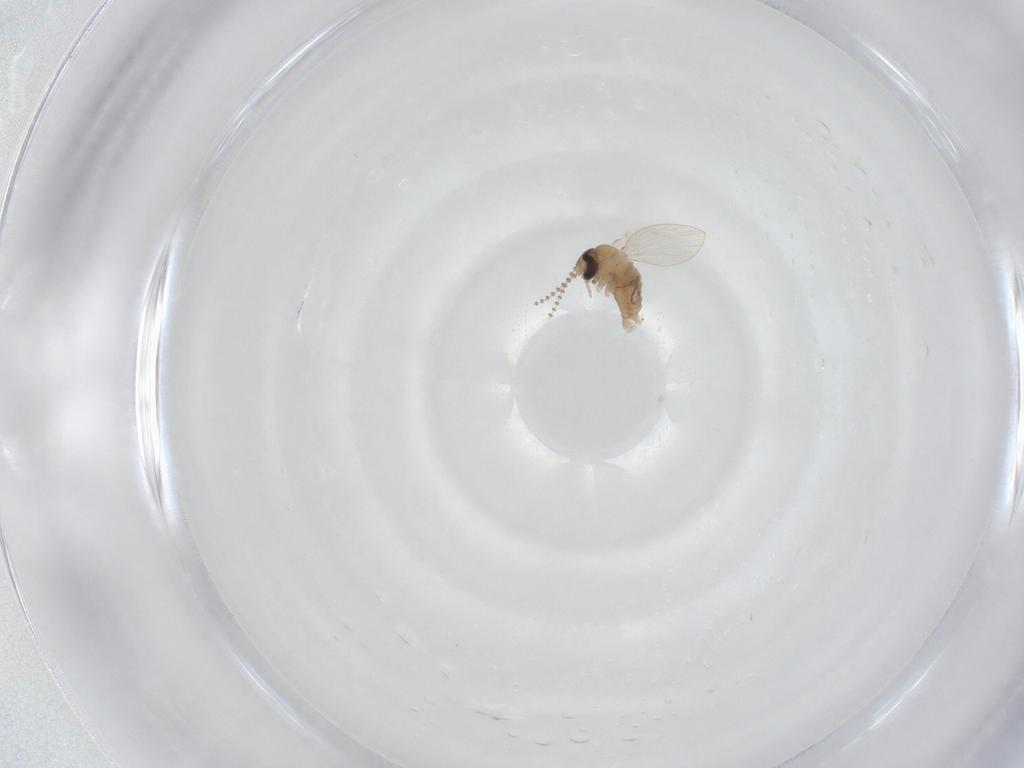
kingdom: Animalia
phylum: Arthropoda
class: Insecta
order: Diptera
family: Psychodidae
